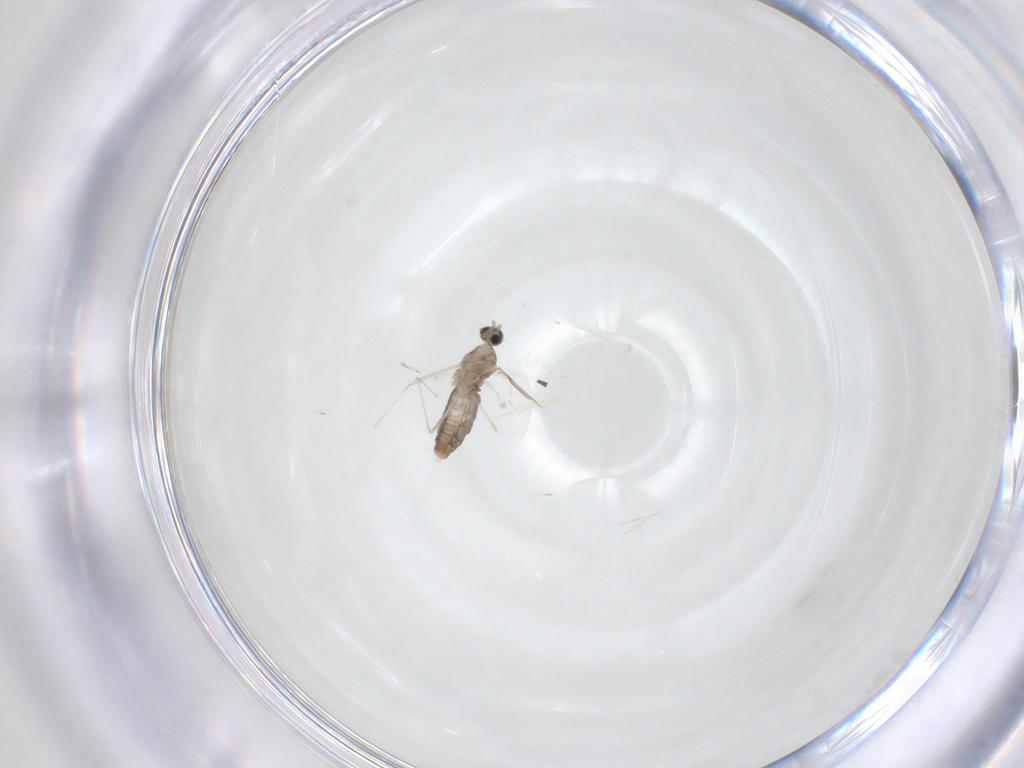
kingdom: Animalia
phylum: Arthropoda
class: Insecta
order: Diptera
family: Cecidomyiidae
